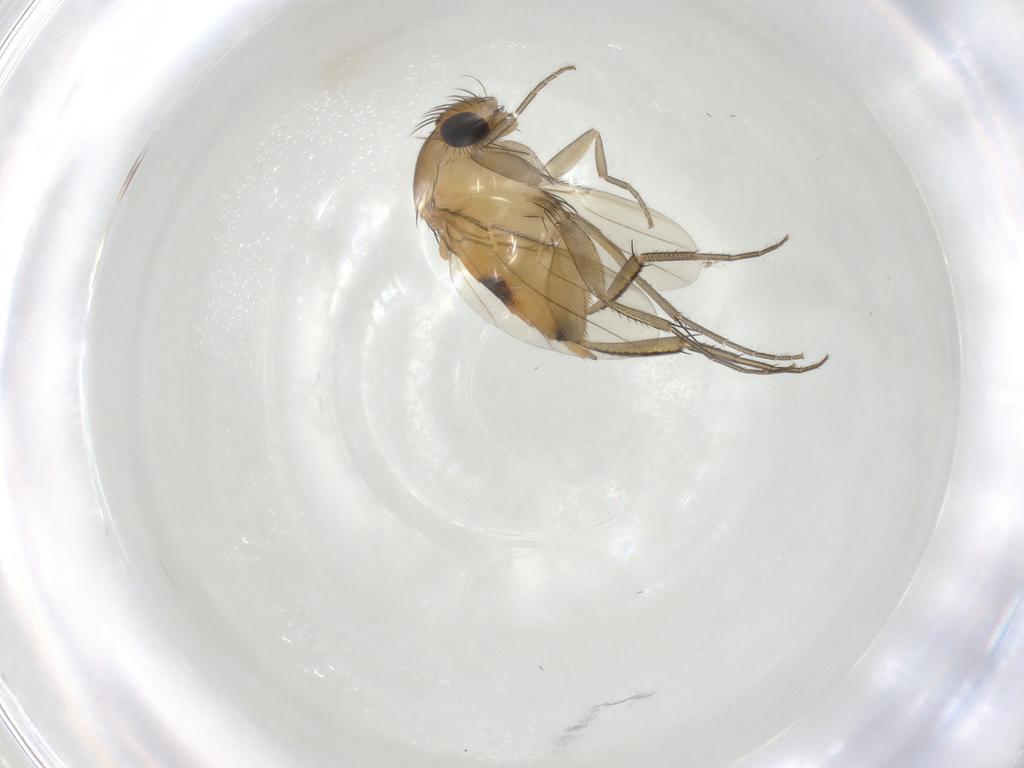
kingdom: Animalia
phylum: Arthropoda
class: Insecta
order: Diptera
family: Phoridae
